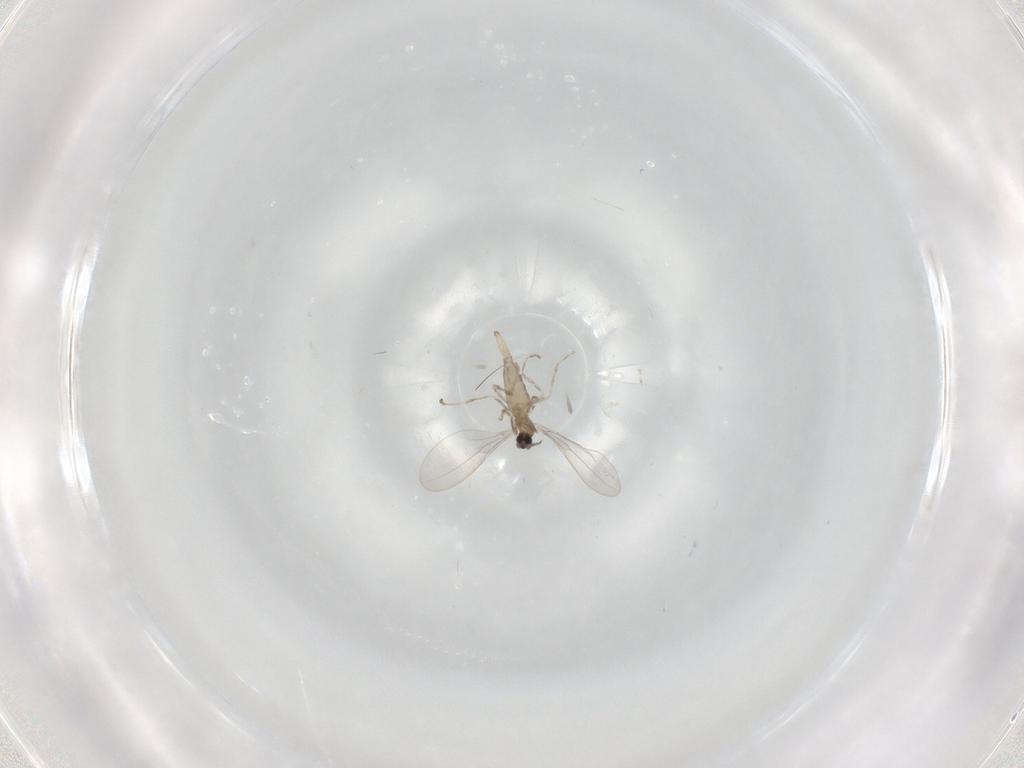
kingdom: Animalia
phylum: Arthropoda
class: Insecta
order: Diptera
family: Cecidomyiidae
